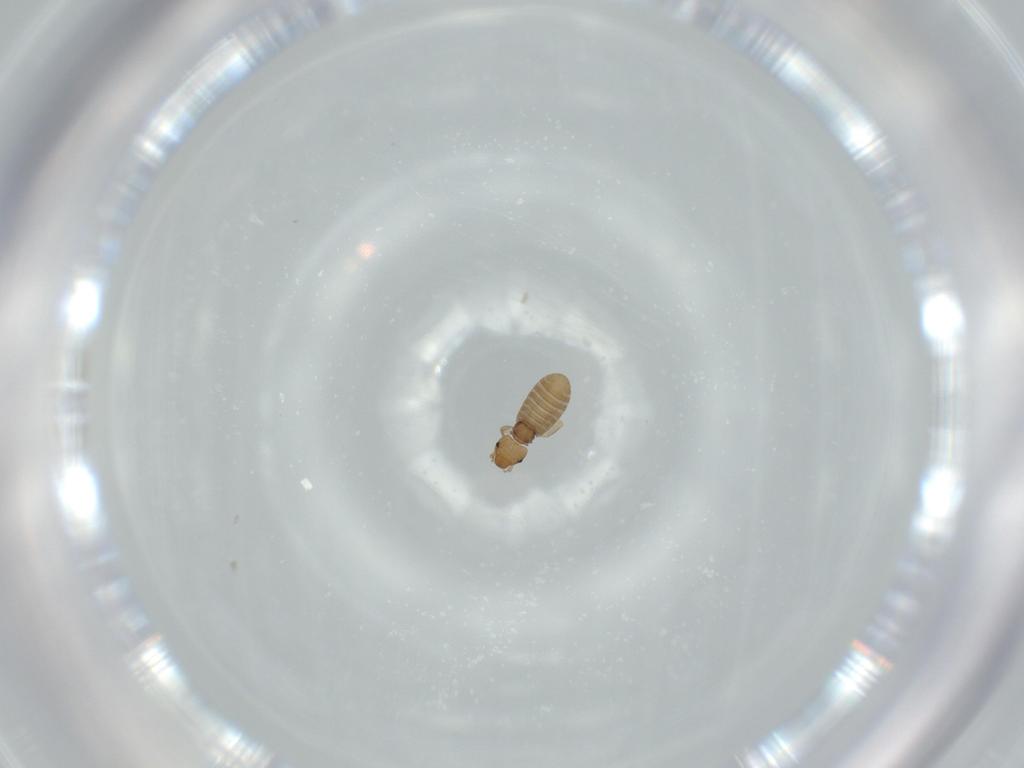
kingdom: Animalia
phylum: Arthropoda
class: Insecta
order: Psocodea
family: Liposcelididae
